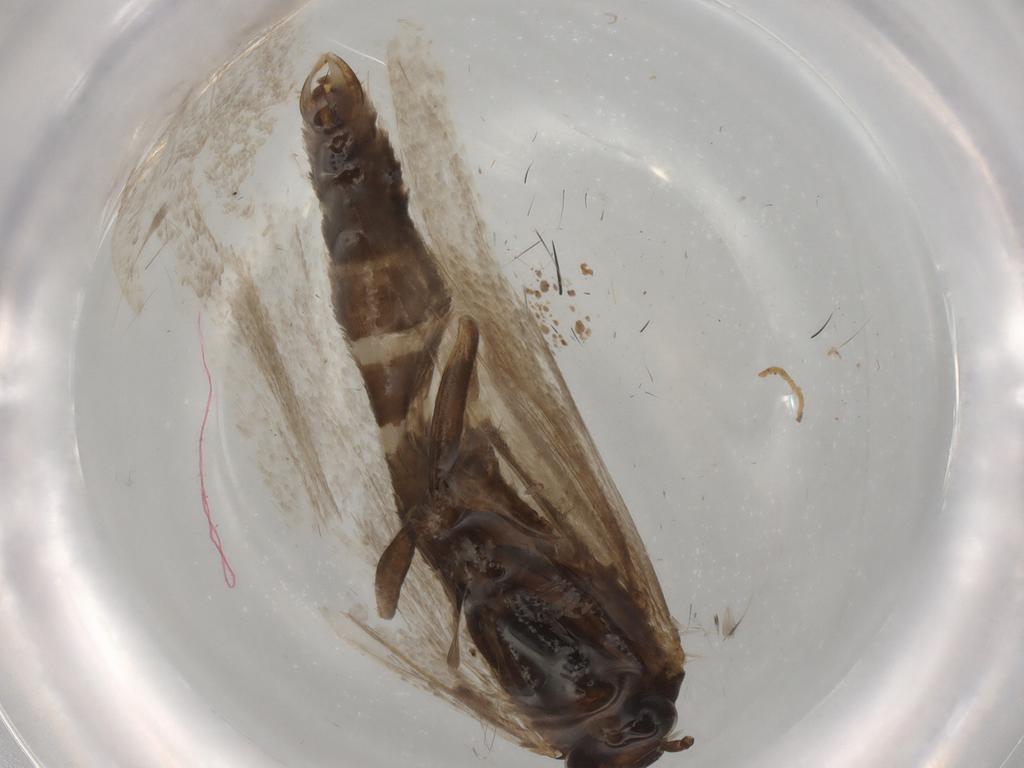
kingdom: Animalia
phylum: Arthropoda
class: Insecta
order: Lepidoptera
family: Tortricidae
